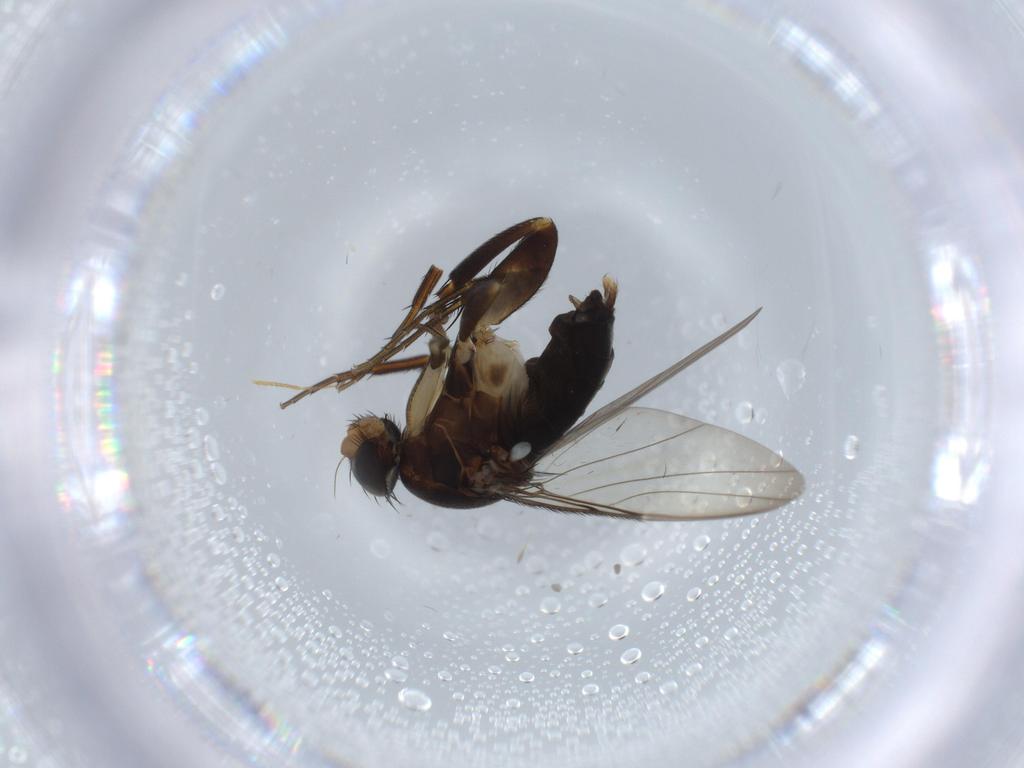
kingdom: Animalia
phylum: Arthropoda
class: Insecta
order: Diptera
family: Phoridae
